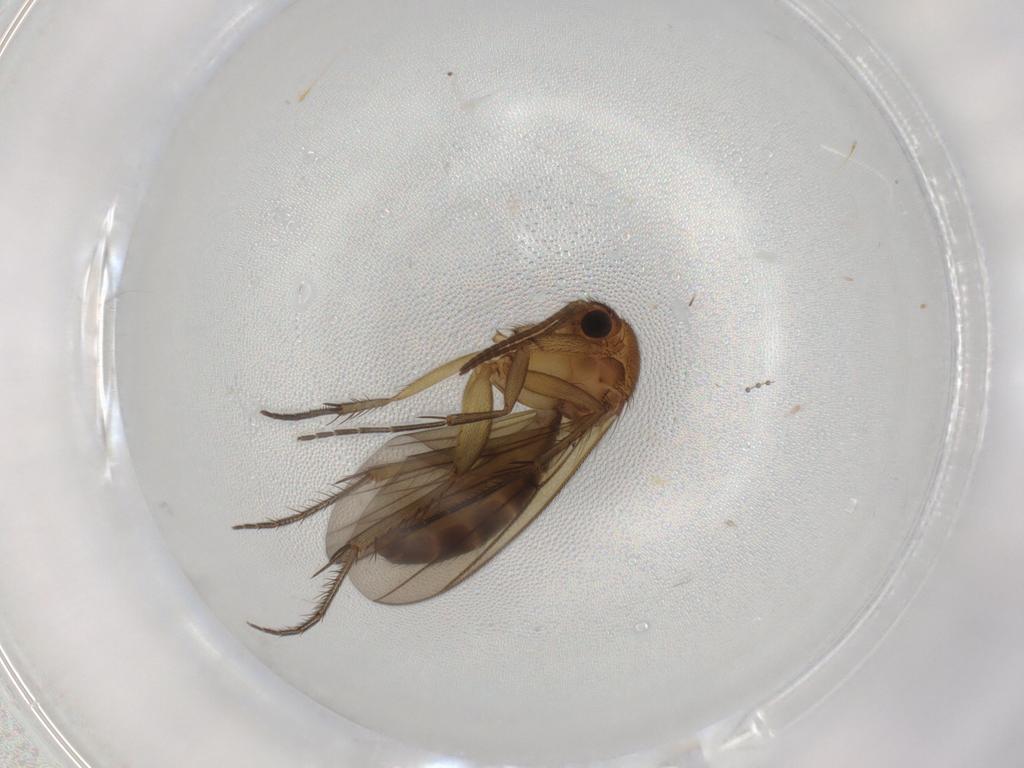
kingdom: Animalia
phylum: Arthropoda
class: Insecta
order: Diptera
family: Sciaridae
